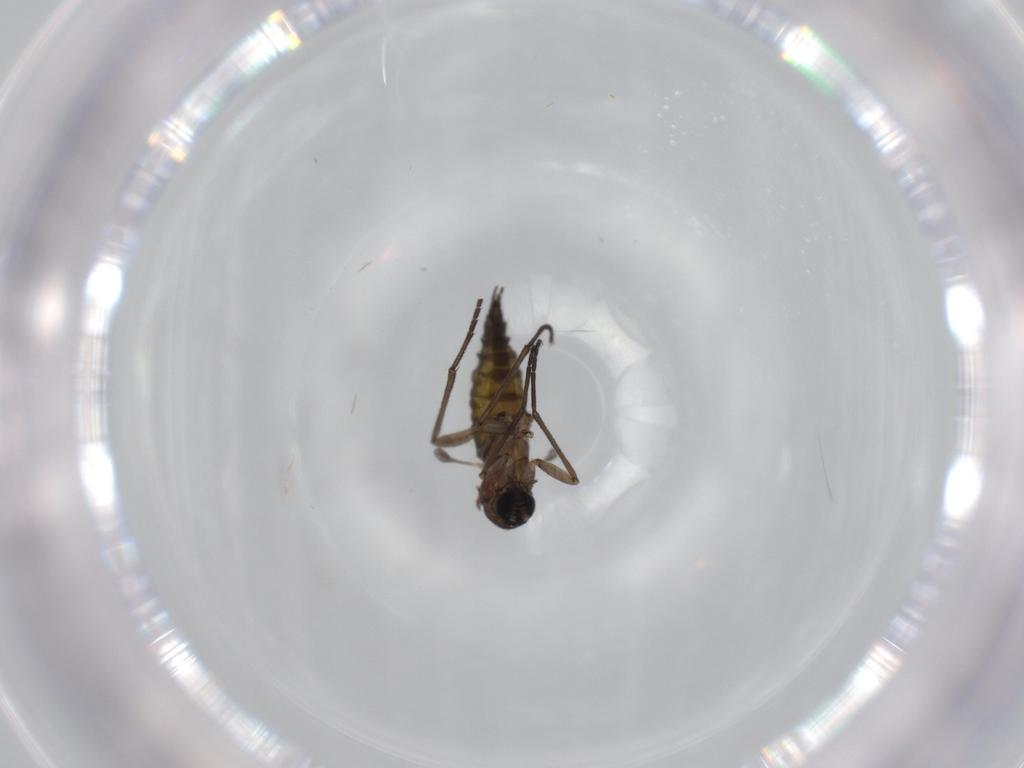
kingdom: Animalia
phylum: Arthropoda
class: Insecta
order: Diptera
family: Sciaridae
